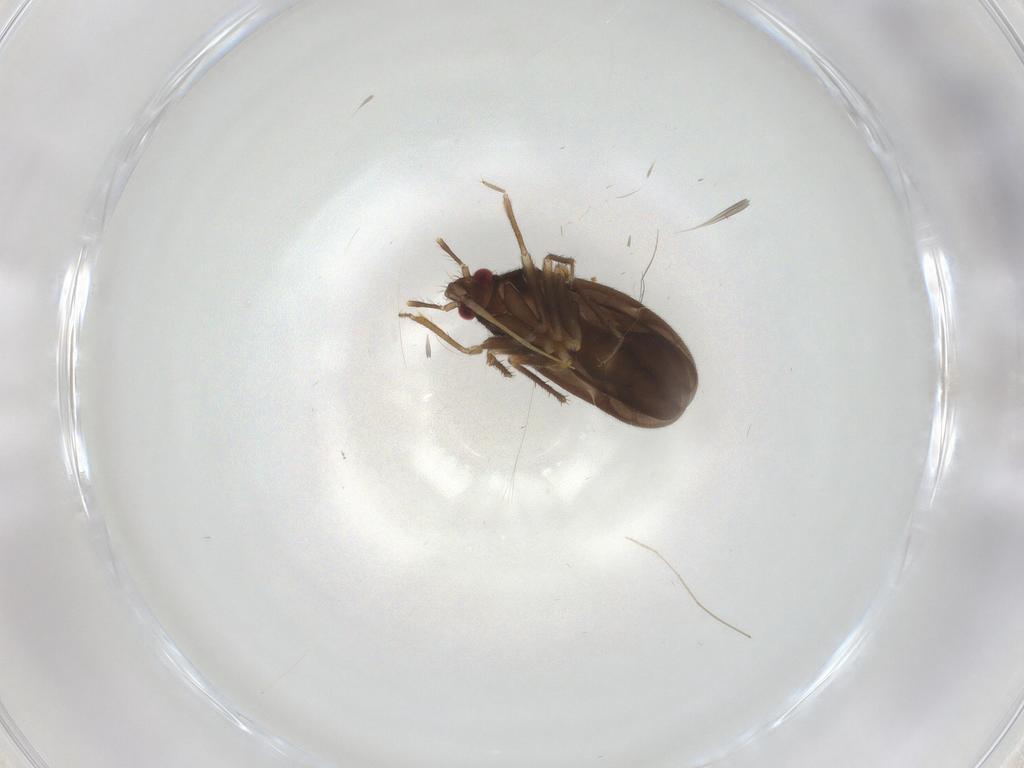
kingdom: Animalia
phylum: Arthropoda
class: Insecta
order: Hemiptera
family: Ceratocombidae
